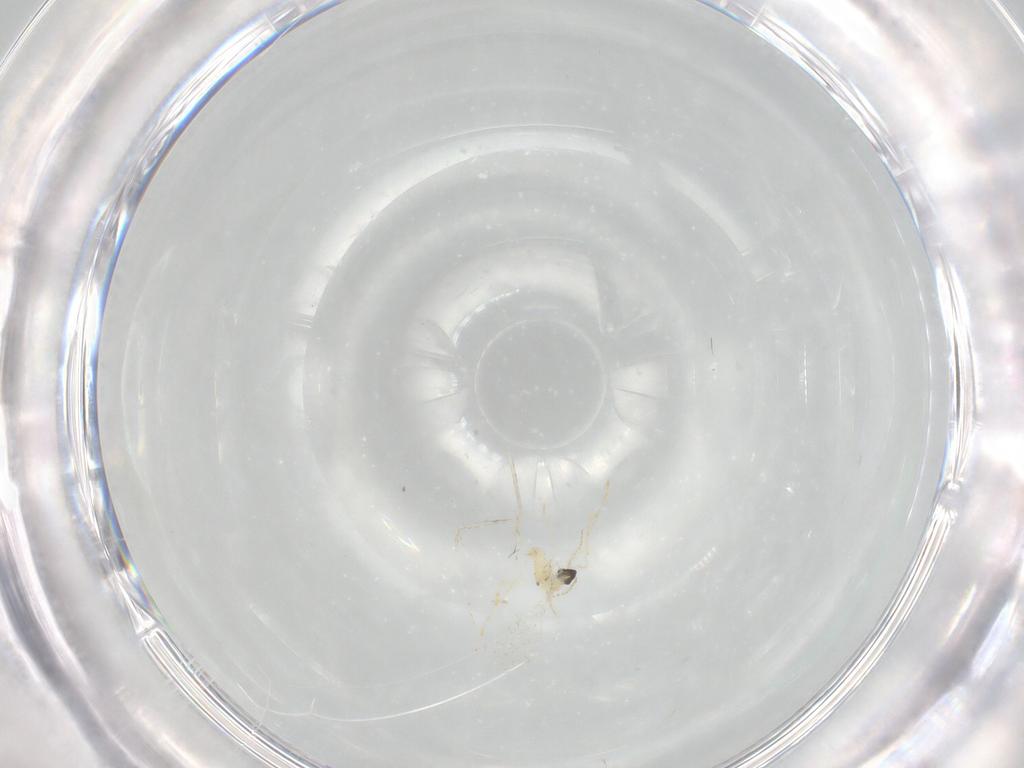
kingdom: Animalia
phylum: Arthropoda
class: Insecta
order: Diptera
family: Cecidomyiidae
